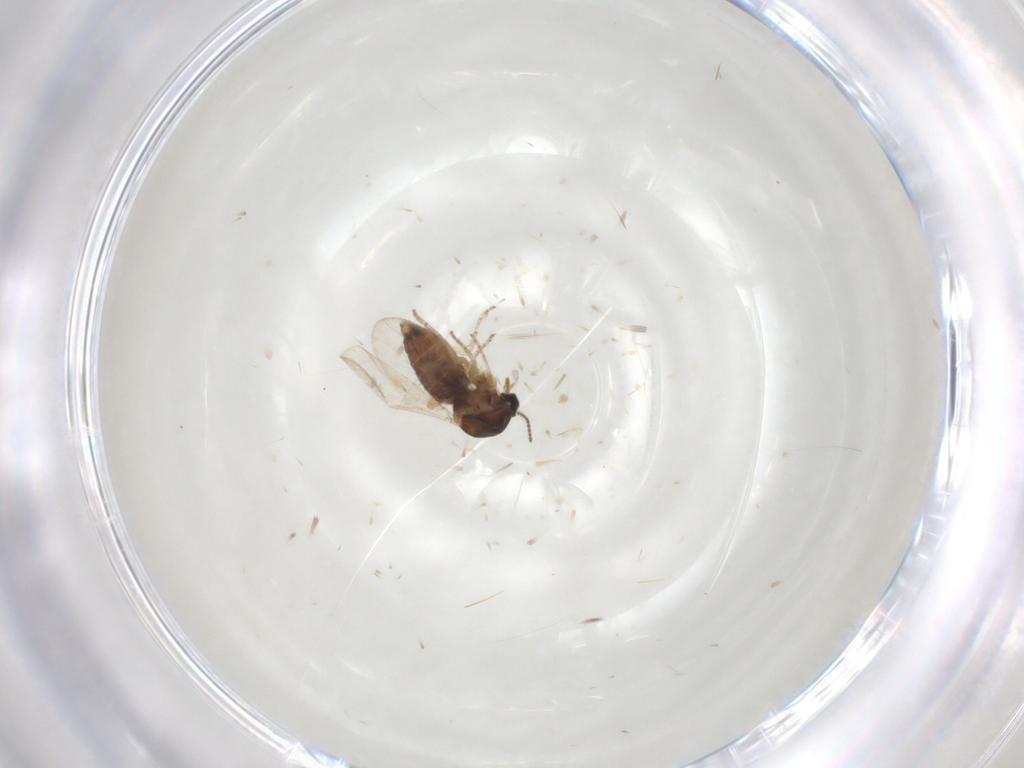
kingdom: Animalia
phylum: Arthropoda
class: Insecta
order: Diptera
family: Ceratopogonidae
